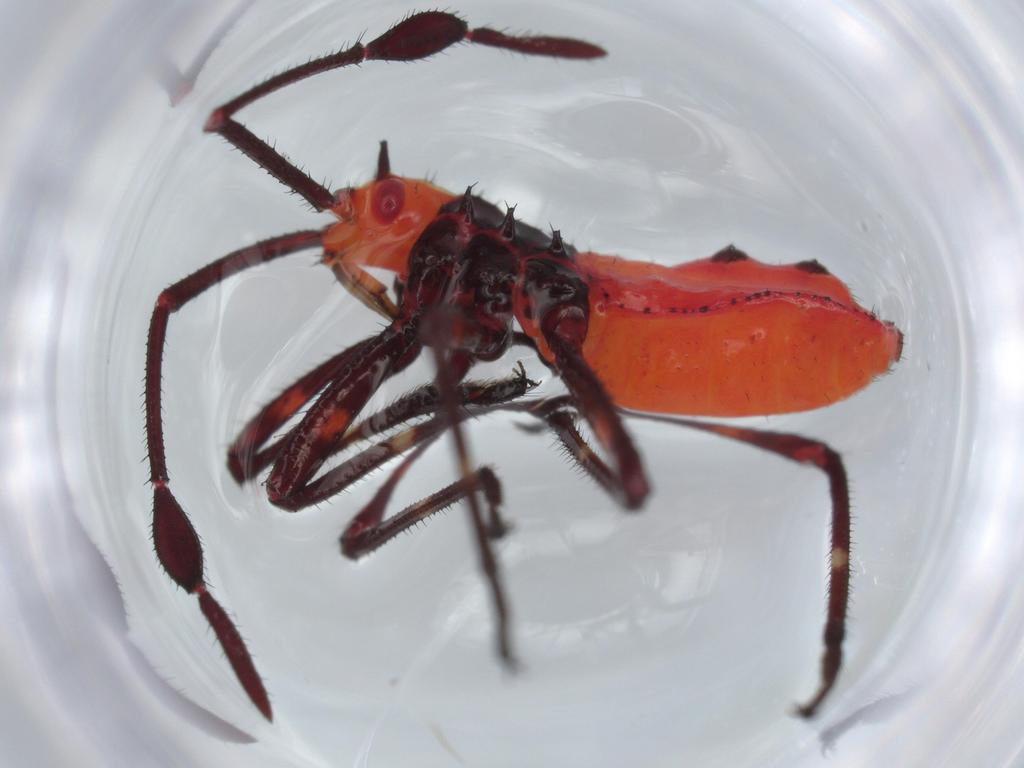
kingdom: Animalia
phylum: Arthropoda
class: Insecta
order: Hemiptera
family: Coreidae
